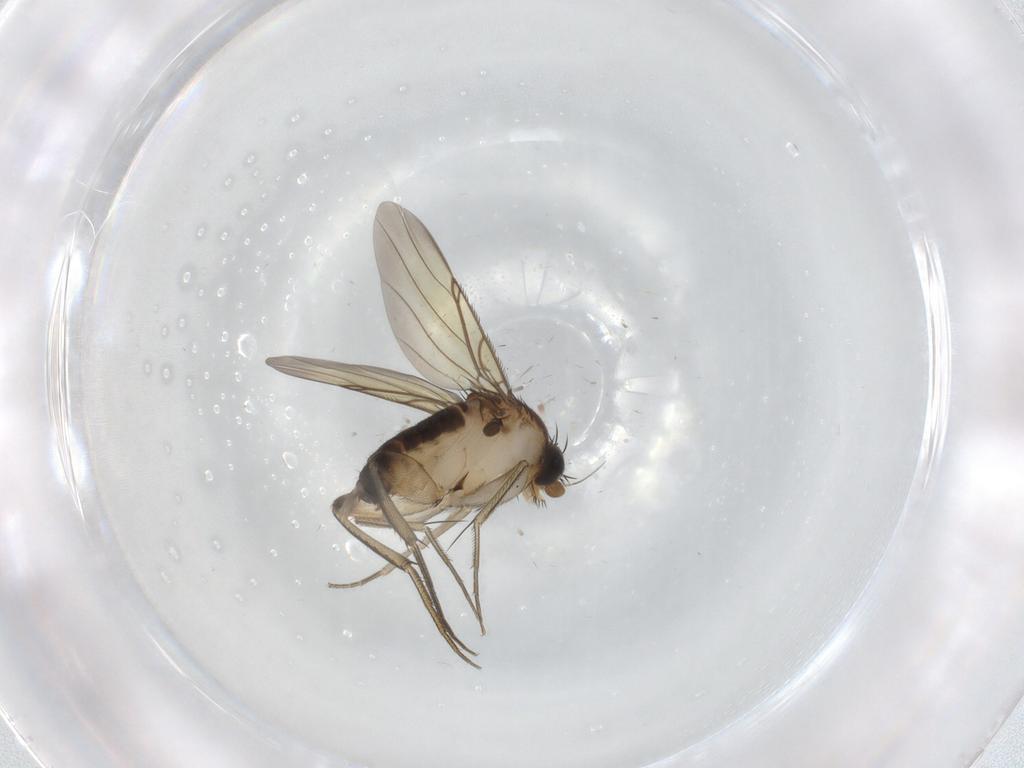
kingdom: Animalia
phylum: Arthropoda
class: Insecta
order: Diptera
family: Phoridae
